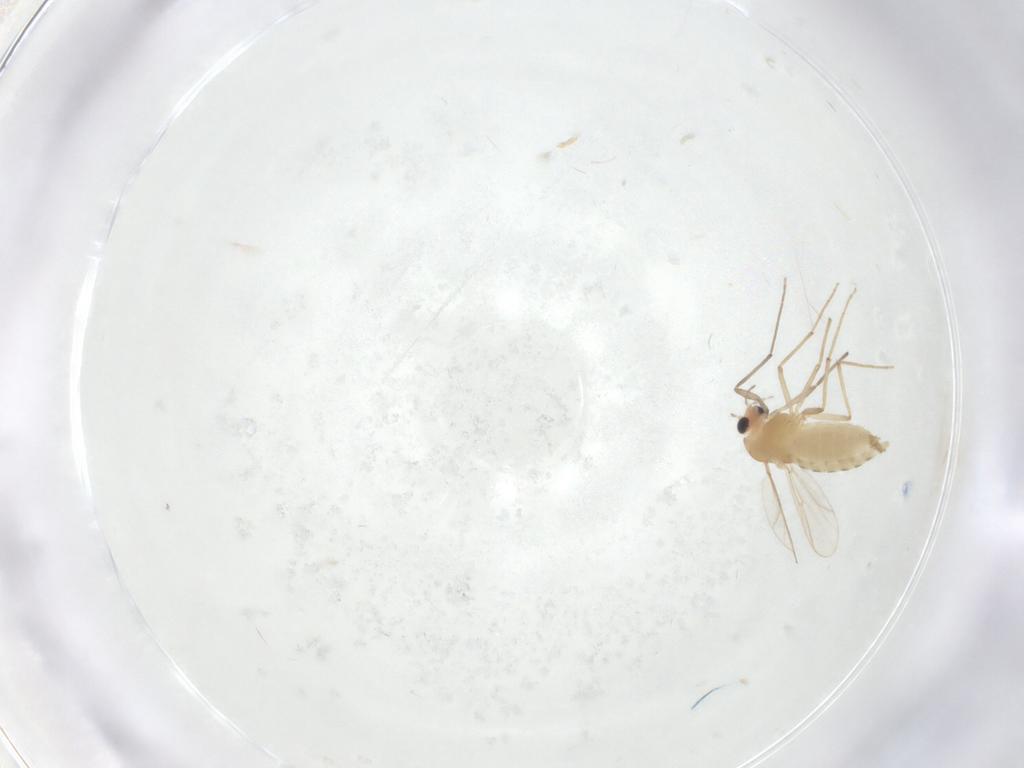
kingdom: Animalia
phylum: Arthropoda
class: Insecta
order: Diptera
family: Chironomidae
